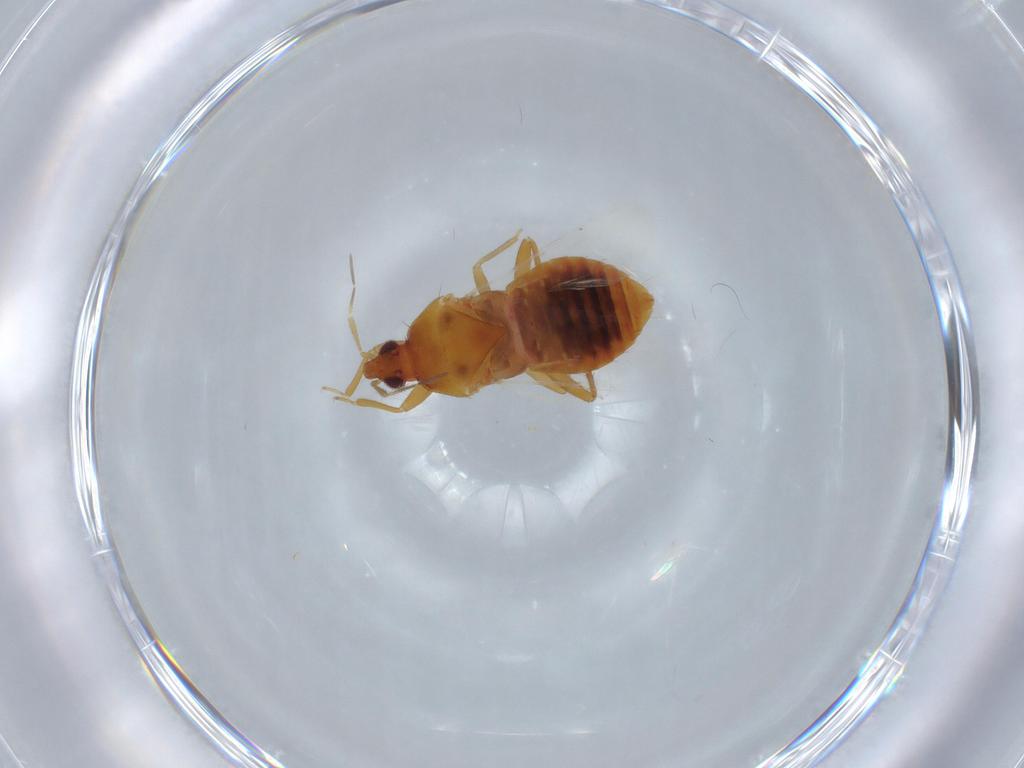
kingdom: Animalia
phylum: Arthropoda
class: Insecta
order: Hemiptera
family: Anthocoridae
